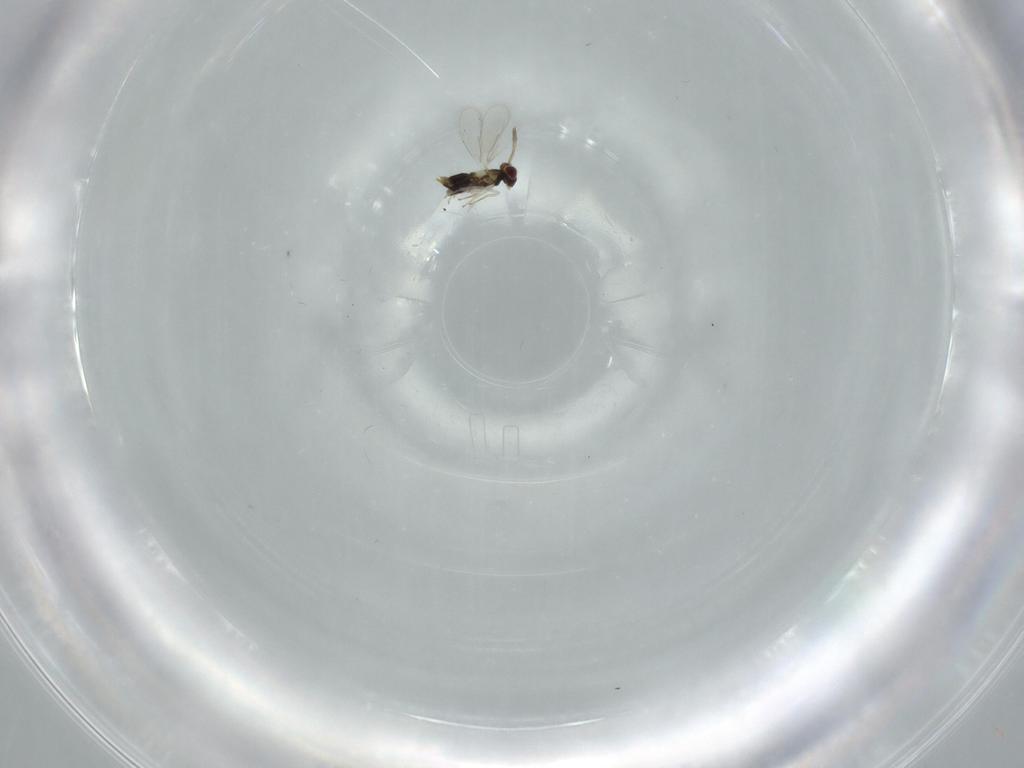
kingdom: Animalia
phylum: Arthropoda
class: Insecta
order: Hymenoptera
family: Aphelinidae
